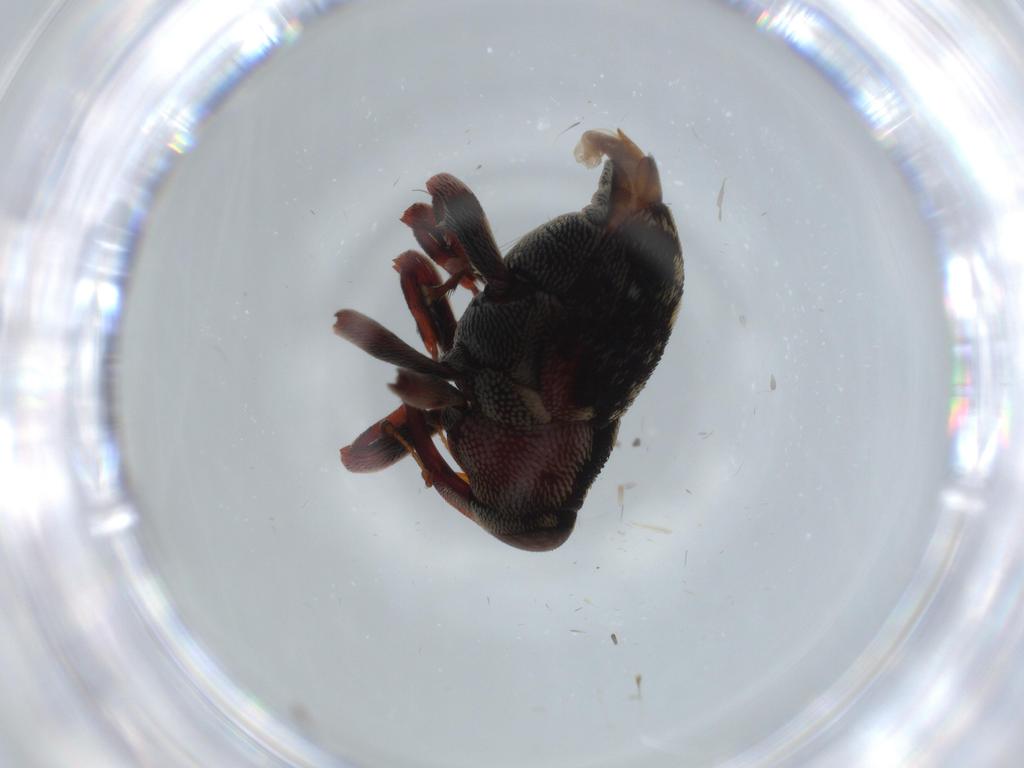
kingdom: Animalia
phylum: Arthropoda
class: Insecta
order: Coleoptera
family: Curculionidae
